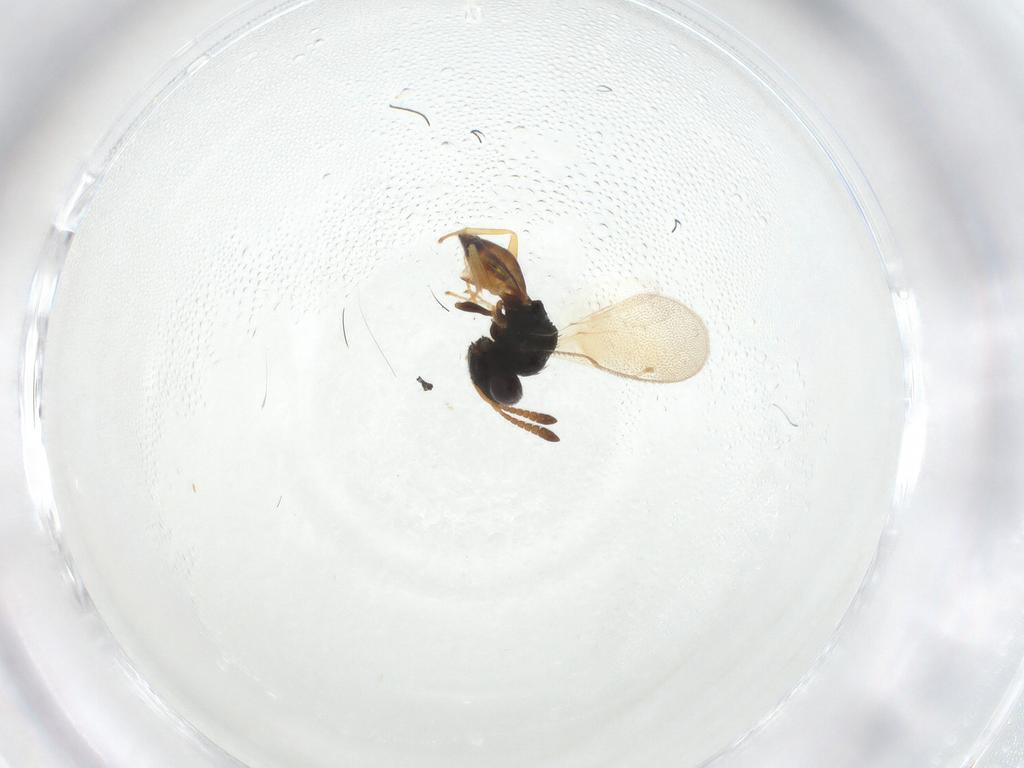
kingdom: Animalia
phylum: Arthropoda
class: Insecta
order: Hymenoptera
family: Pteromalidae
